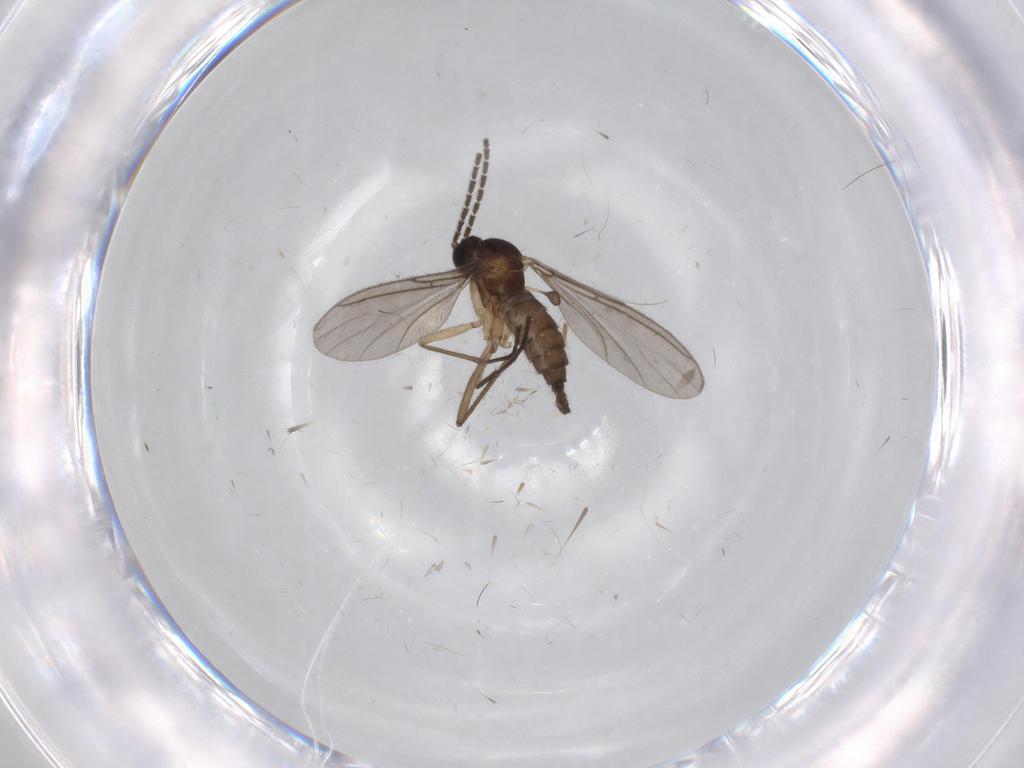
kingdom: Animalia
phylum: Arthropoda
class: Insecta
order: Diptera
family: Cecidomyiidae
